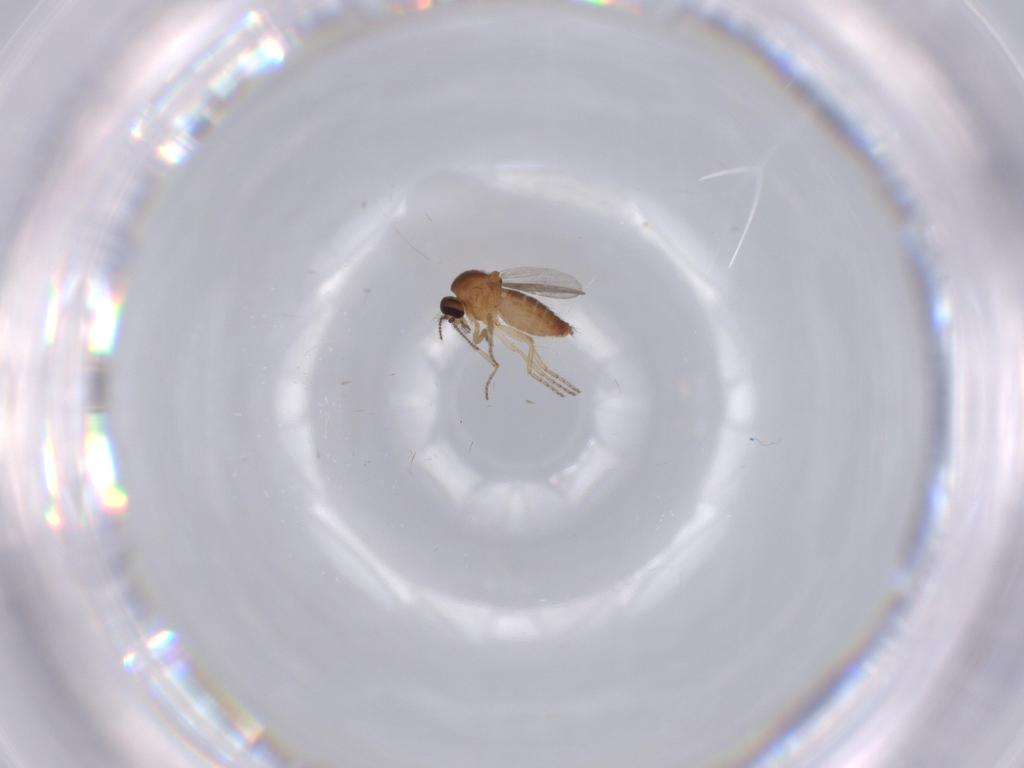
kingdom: Animalia
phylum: Arthropoda
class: Insecta
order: Diptera
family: Ceratopogonidae
